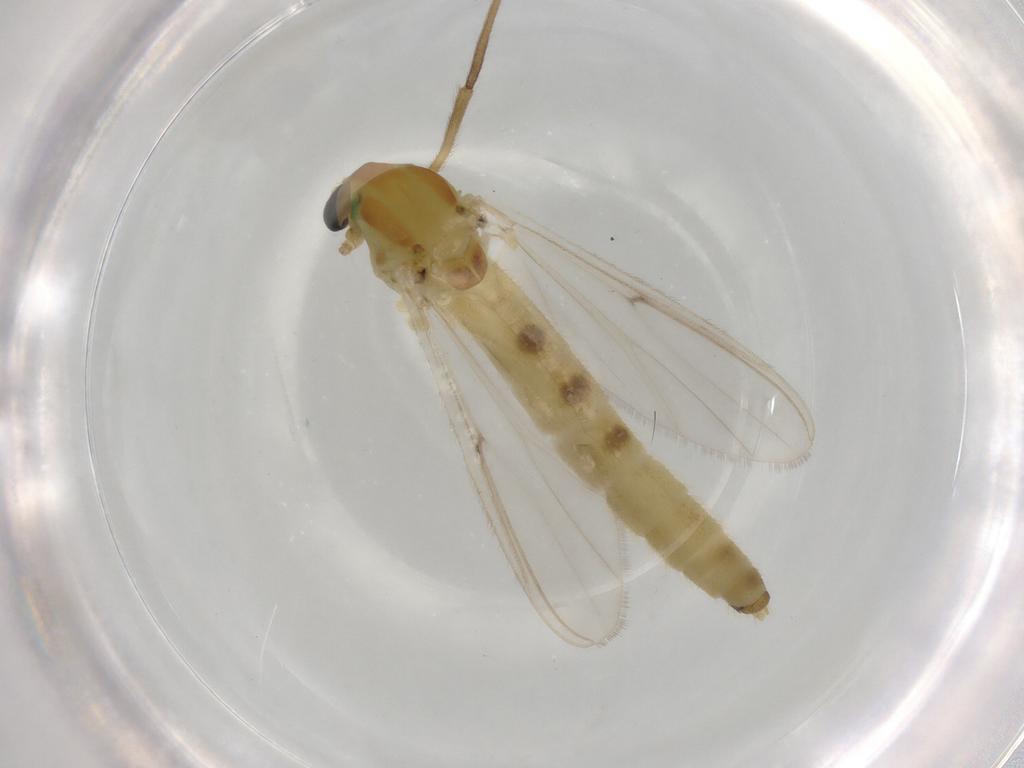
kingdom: Animalia
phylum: Arthropoda
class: Insecta
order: Diptera
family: Chironomidae
